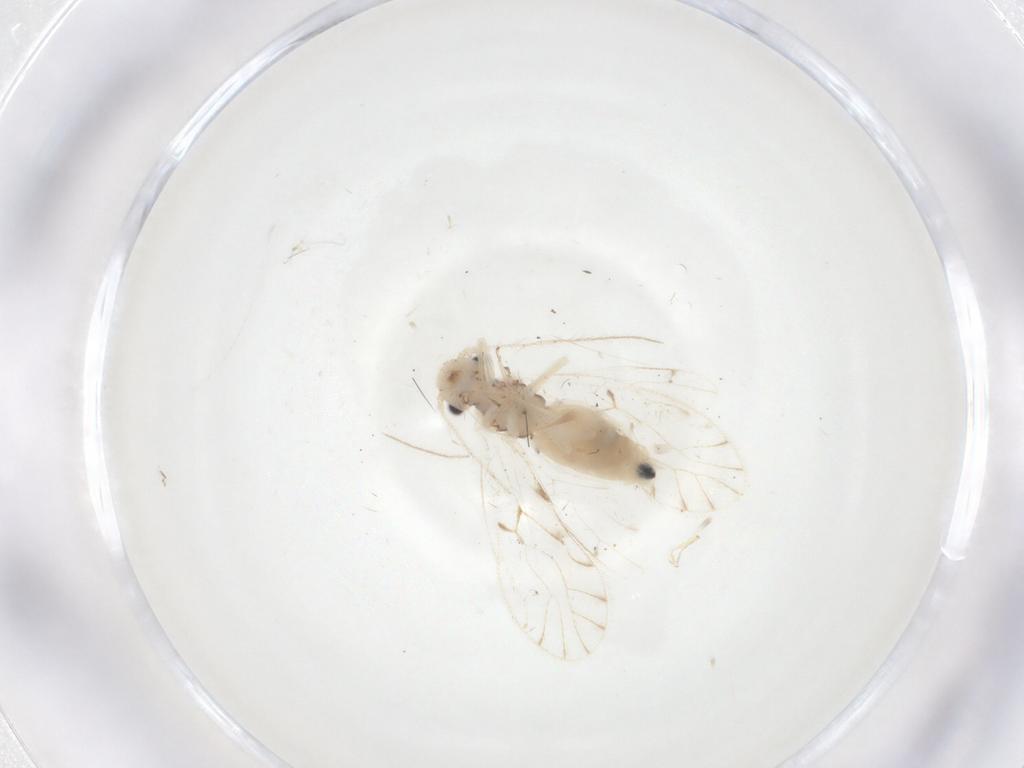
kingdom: Animalia
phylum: Arthropoda
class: Insecta
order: Psocodea
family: Trichopsocidae
